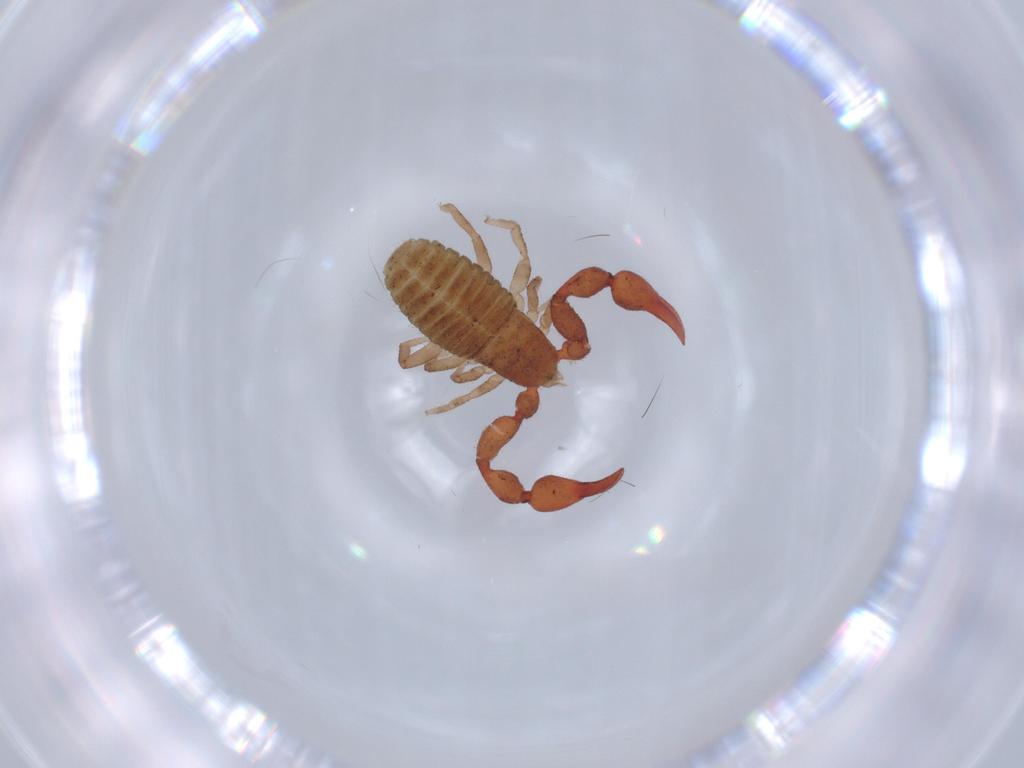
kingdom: Animalia
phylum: Arthropoda
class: Arachnida
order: Pseudoscorpiones
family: Chernetidae
